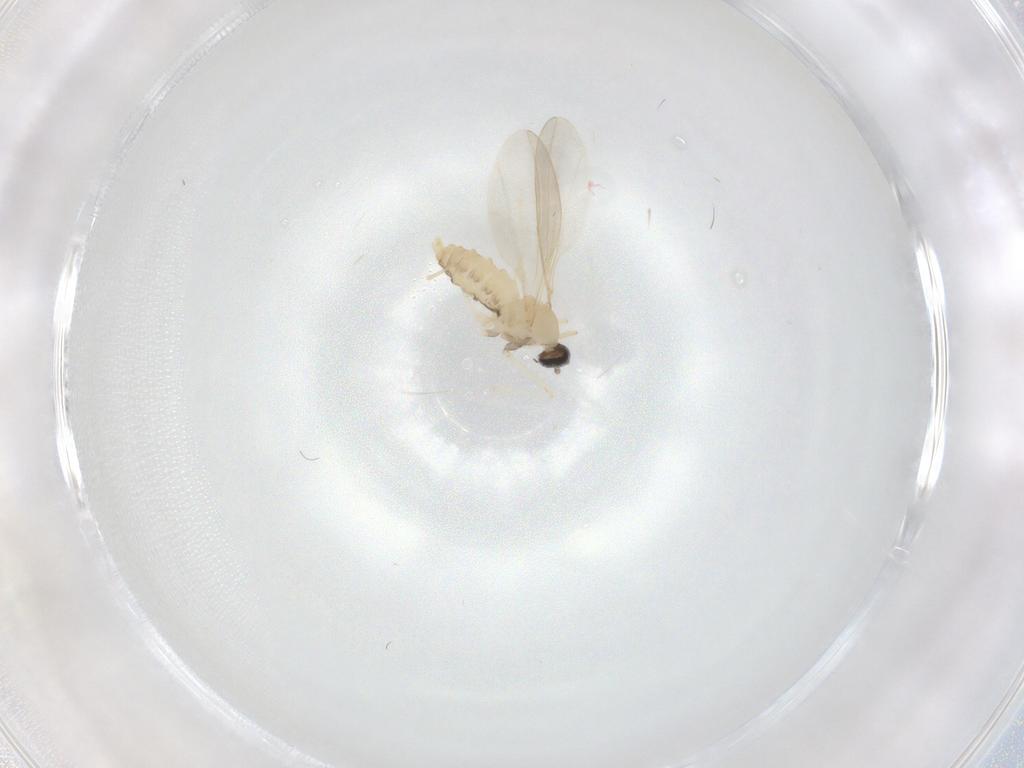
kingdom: Animalia
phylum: Arthropoda
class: Insecta
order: Diptera
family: Cecidomyiidae
